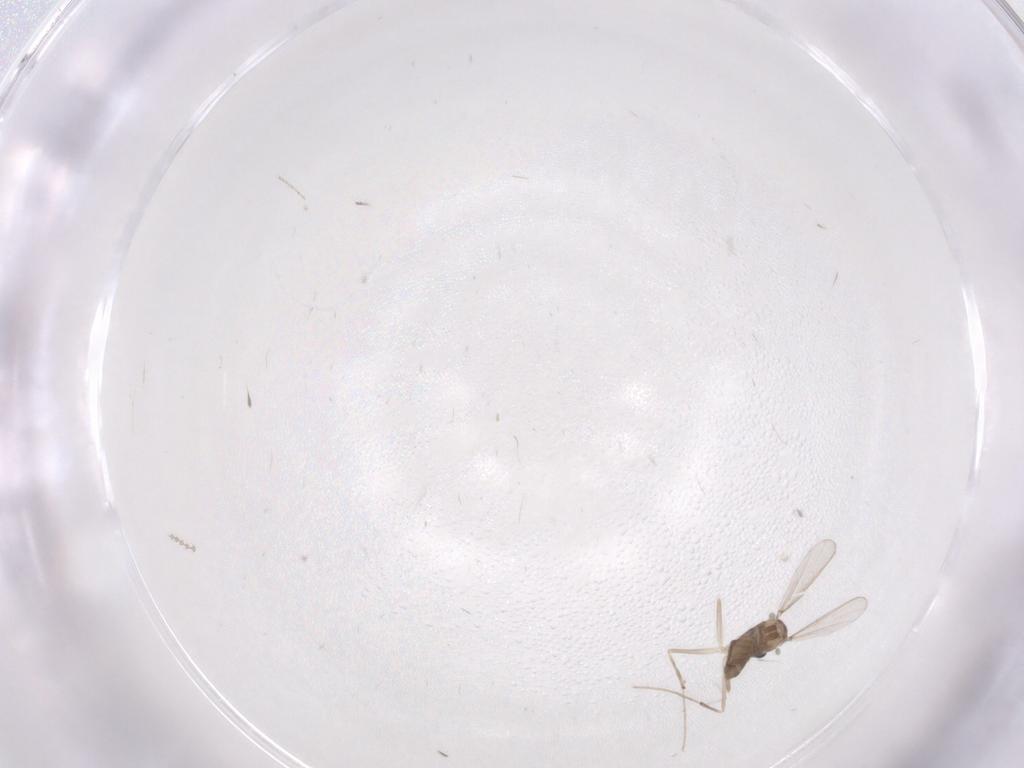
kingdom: Animalia
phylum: Arthropoda
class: Insecta
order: Diptera
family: Chironomidae
